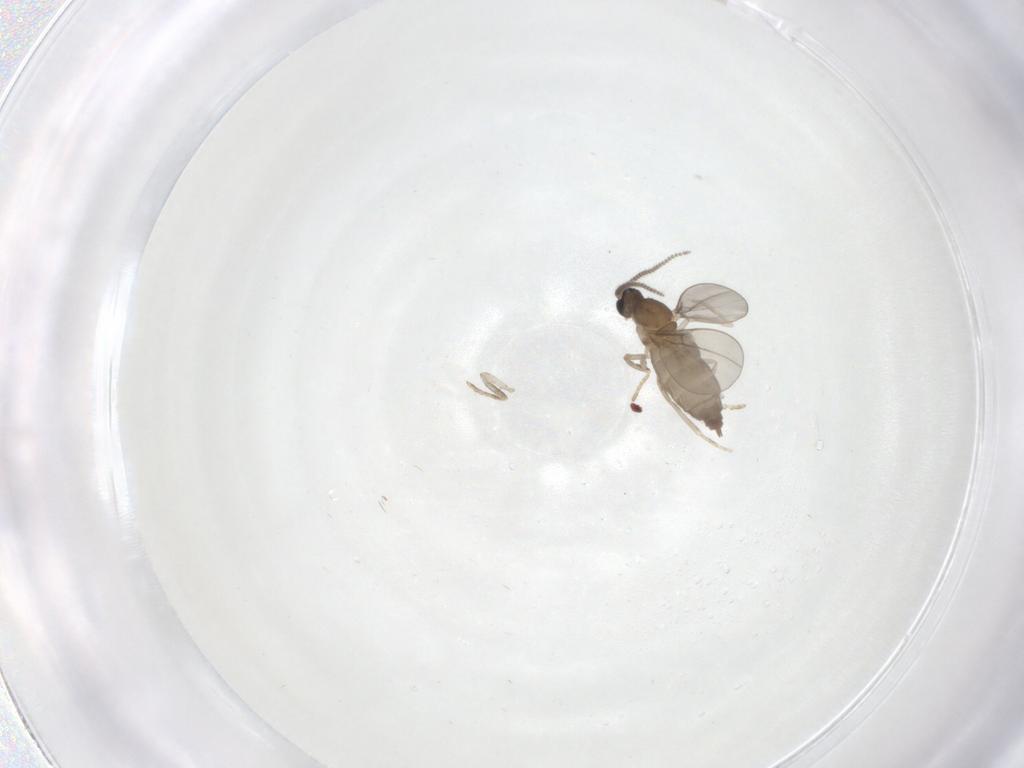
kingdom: Animalia
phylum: Arthropoda
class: Insecta
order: Diptera
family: Cecidomyiidae
